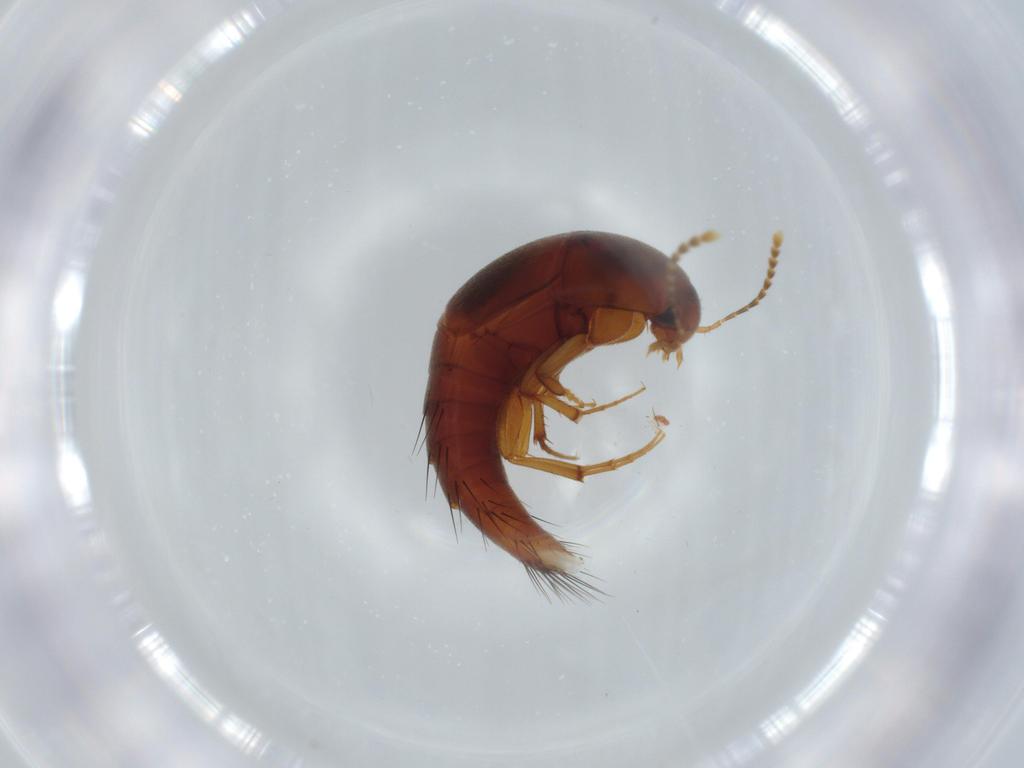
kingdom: Animalia
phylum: Arthropoda
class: Insecta
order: Coleoptera
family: Staphylinidae
